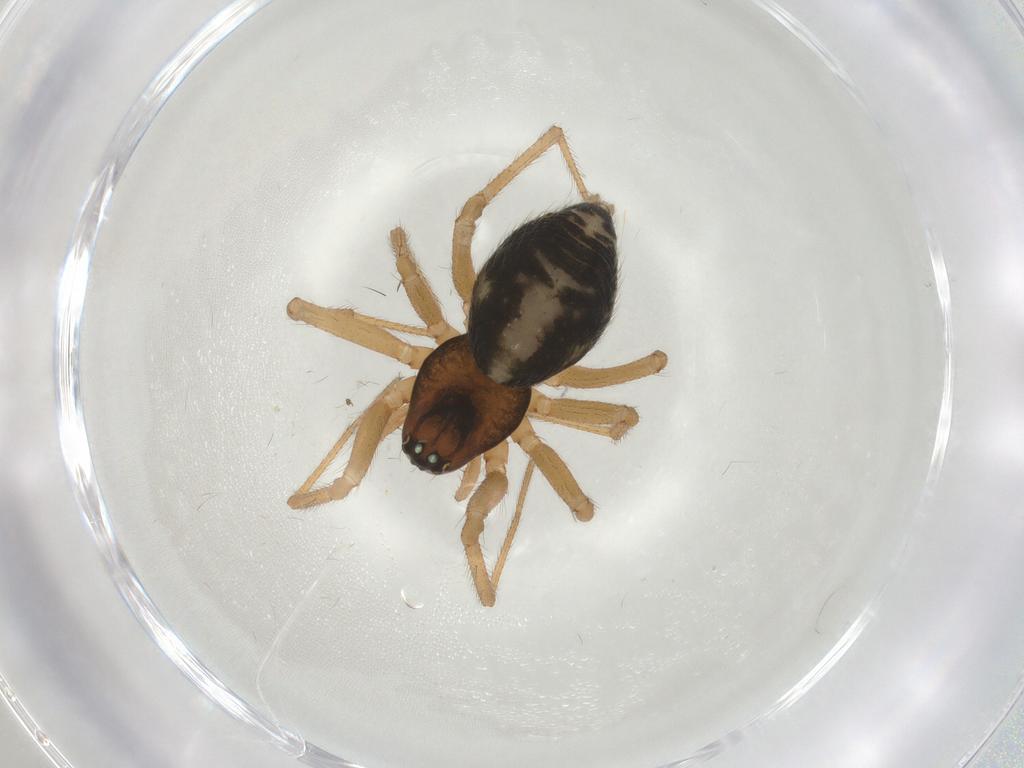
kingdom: Animalia
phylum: Arthropoda
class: Arachnida
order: Araneae
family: Linyphiidae
